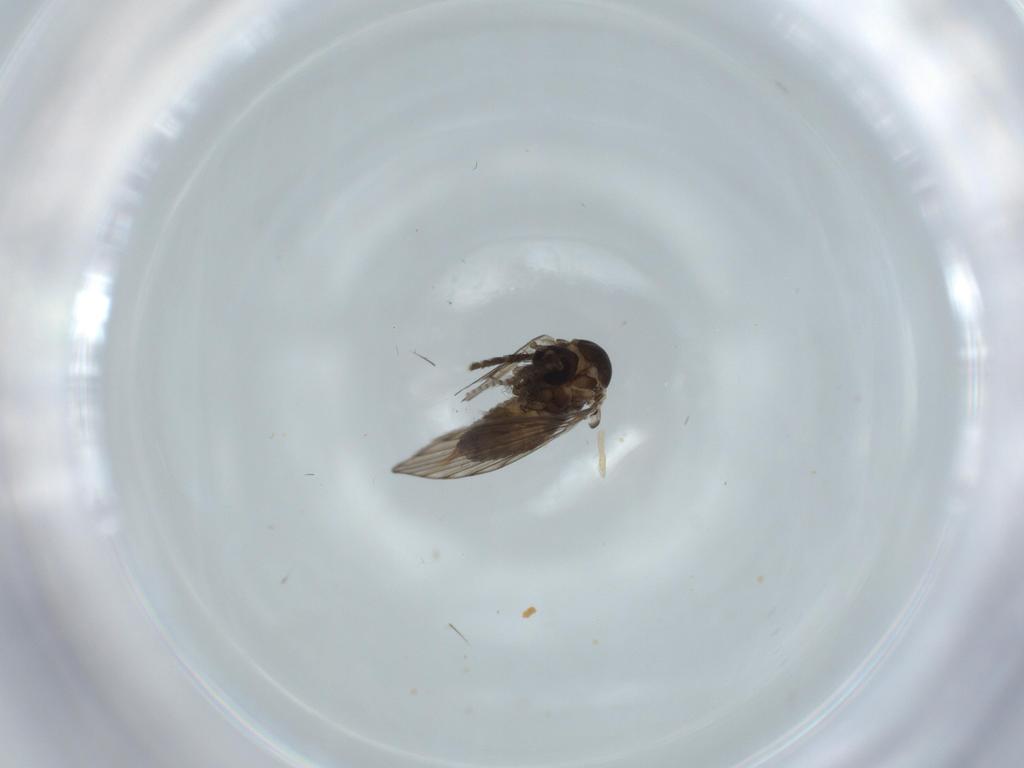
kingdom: Animalia
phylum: Arthropoda
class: Insecta
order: Diptera
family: Psychodidae
